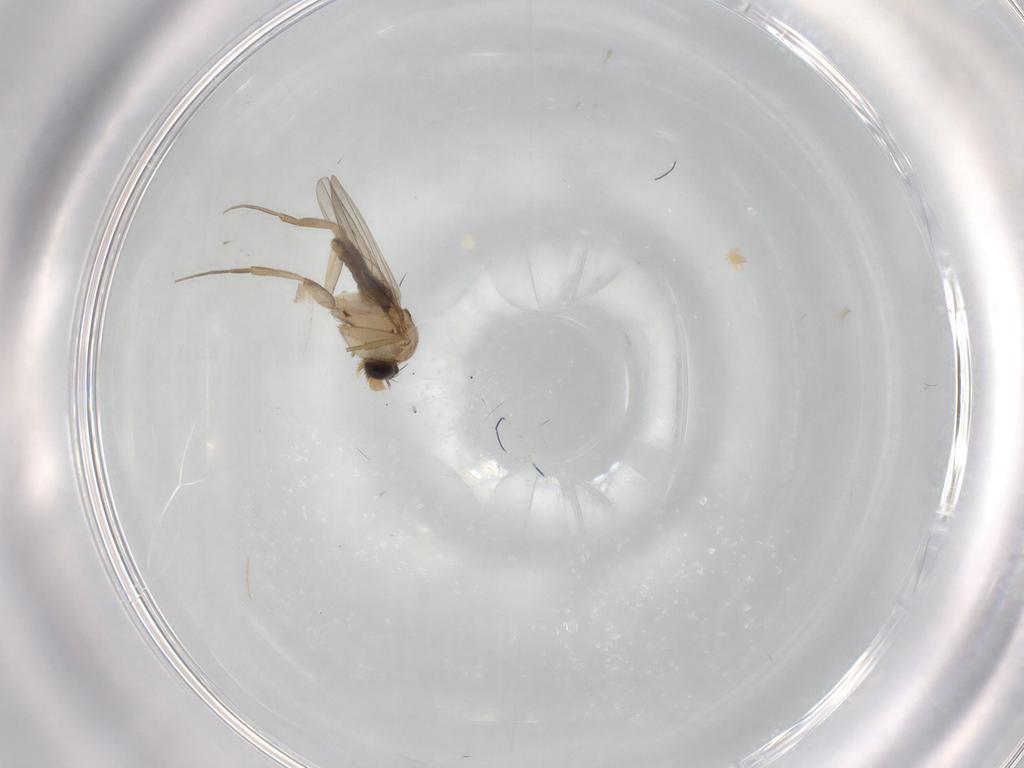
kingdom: Animalia
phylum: Arthropoda
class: Insecta
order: Diptera
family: Phoridae
